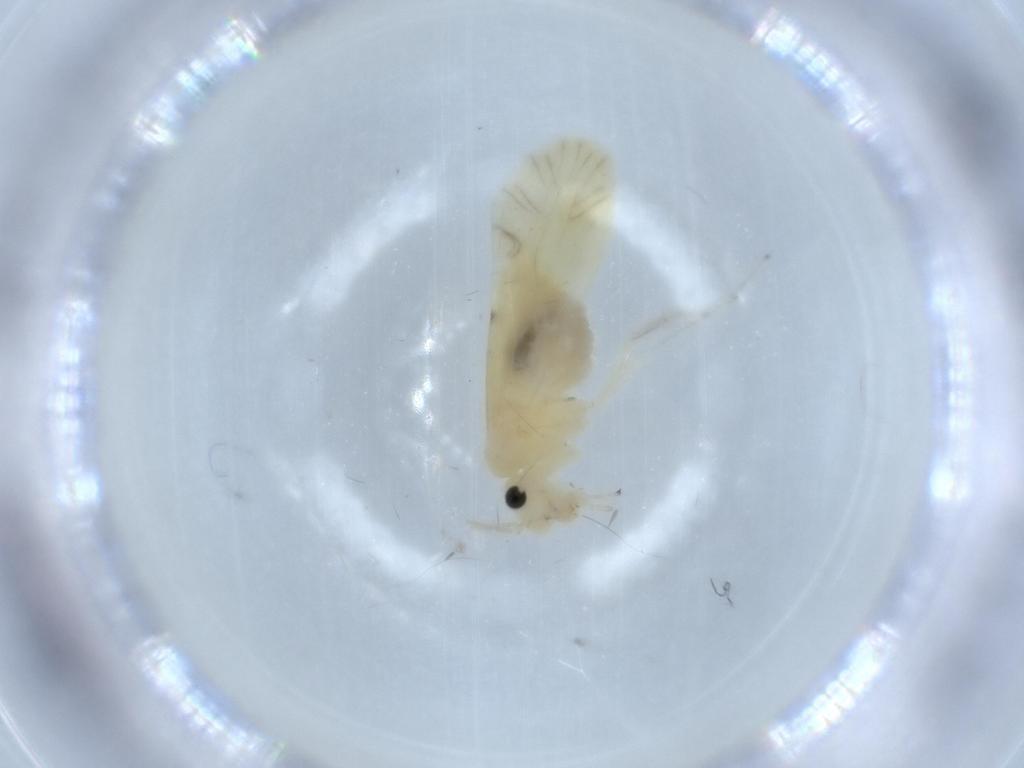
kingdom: Animalia
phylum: Arthropoda
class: Insecta
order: Psocodea
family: Caeciliusidae
